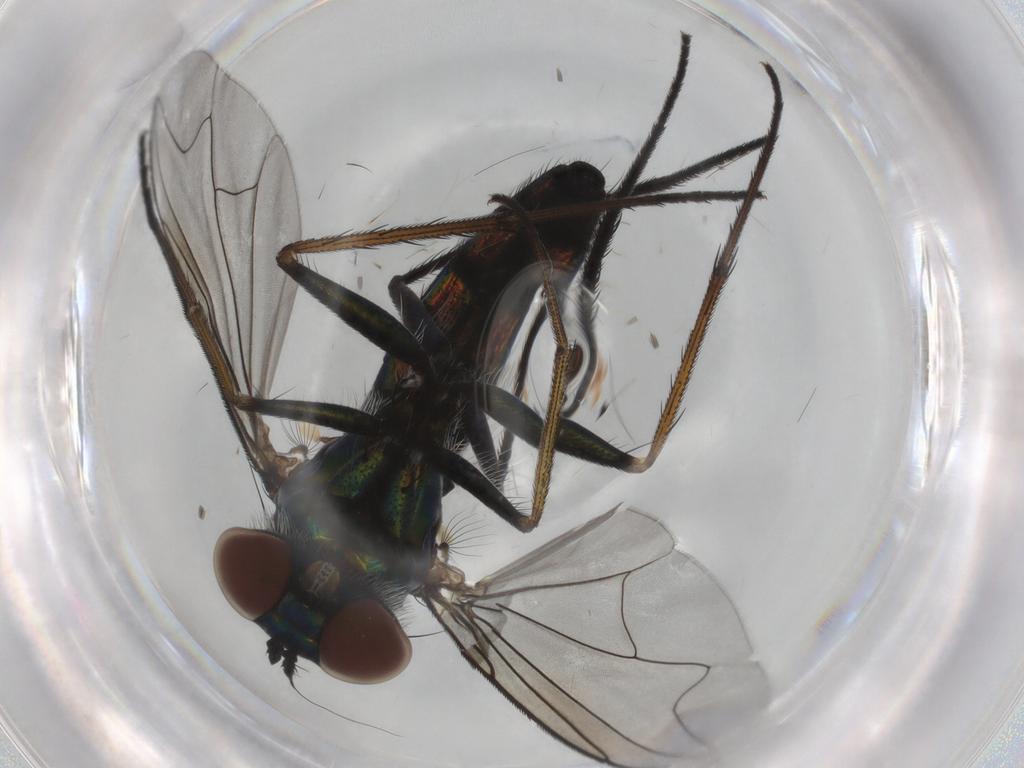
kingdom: Animalia
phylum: Arthropoda
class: Insecta
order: Diptera
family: Dolichopodidae
